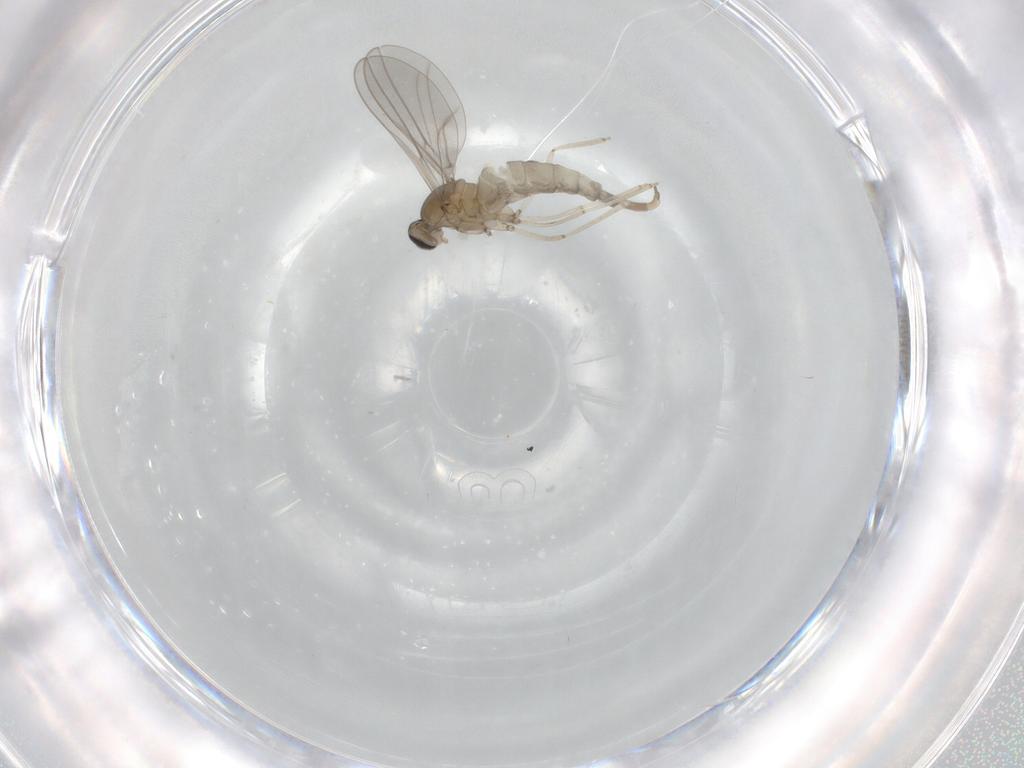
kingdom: Animalia
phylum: Arthropoda
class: Insecta
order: Diptera
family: Cecidomyiidae
